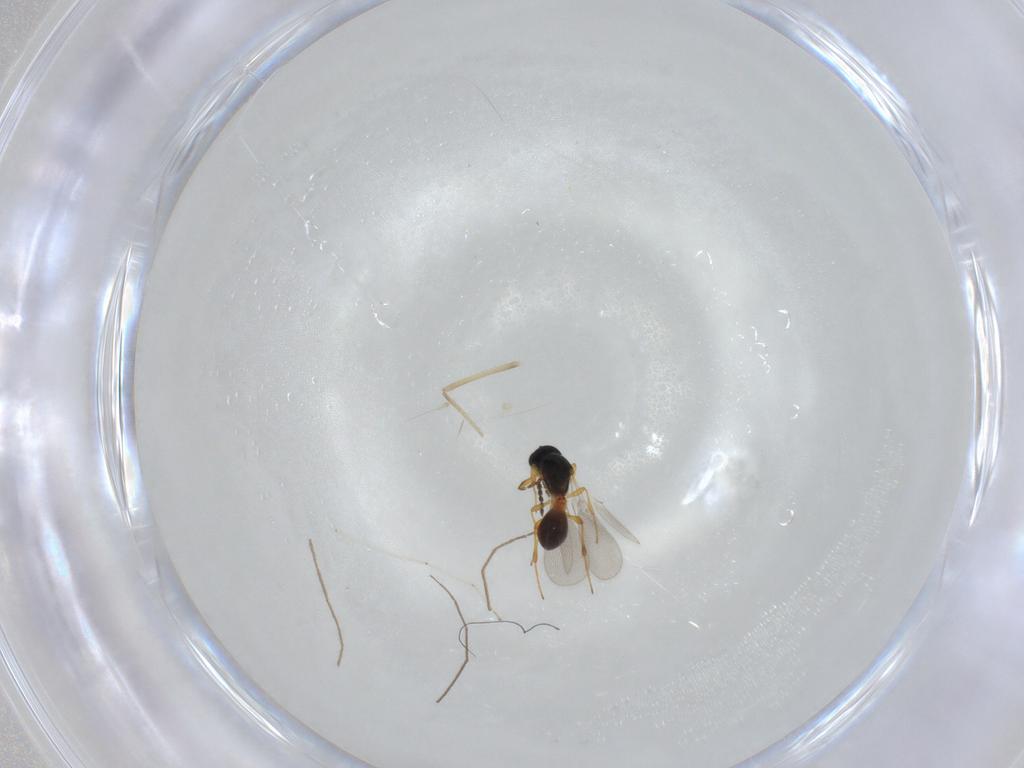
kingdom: Animalia
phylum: Arthropoda
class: Insecta
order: Hymenoptera
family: Platygastridae
